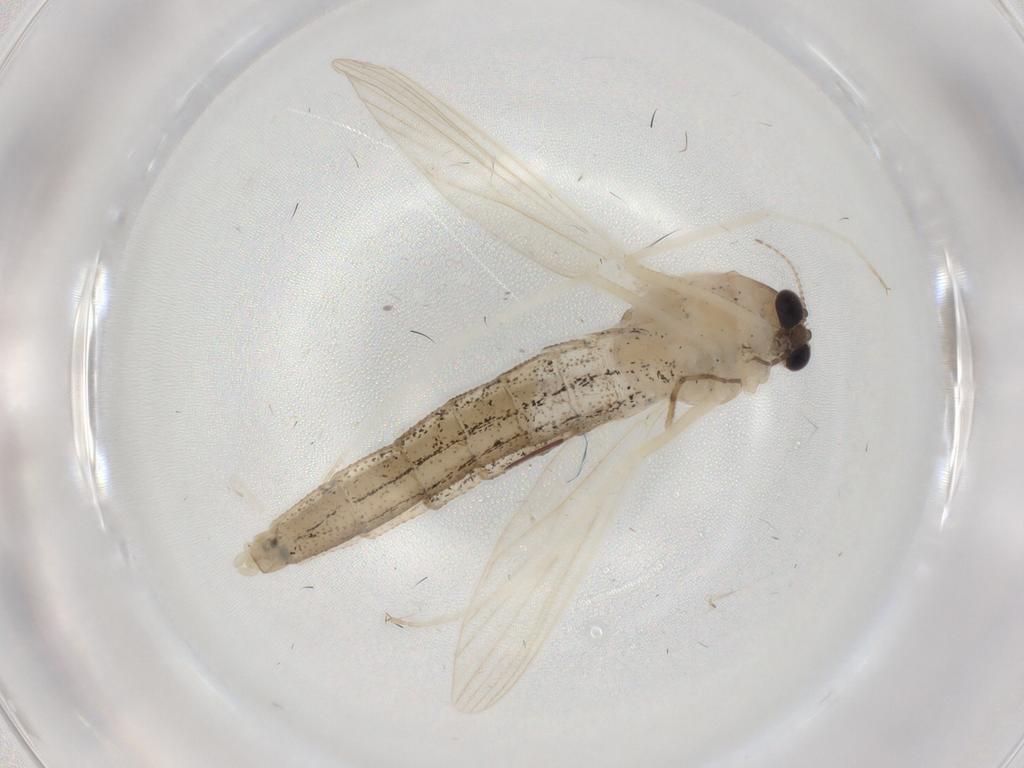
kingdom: Animalia
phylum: Arthropoda
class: Insecta
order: Diptera
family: Chloropidae
